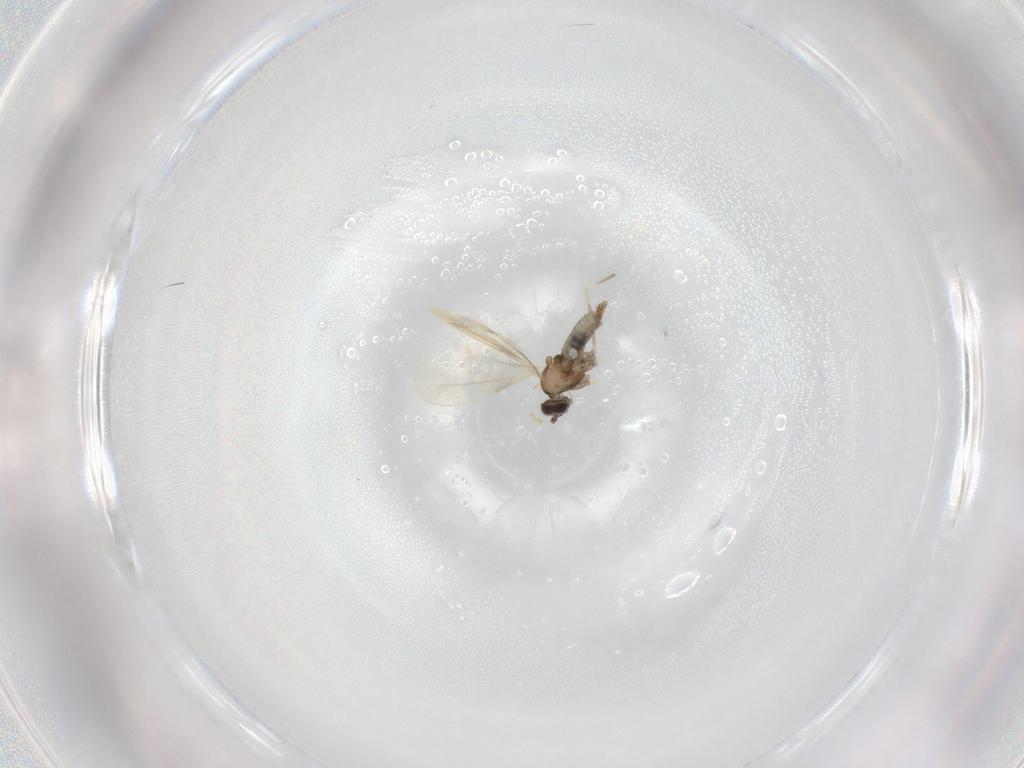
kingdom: Animalia
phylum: Arthropoda
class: Insecta
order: Diptera
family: Cecidomyiidae
